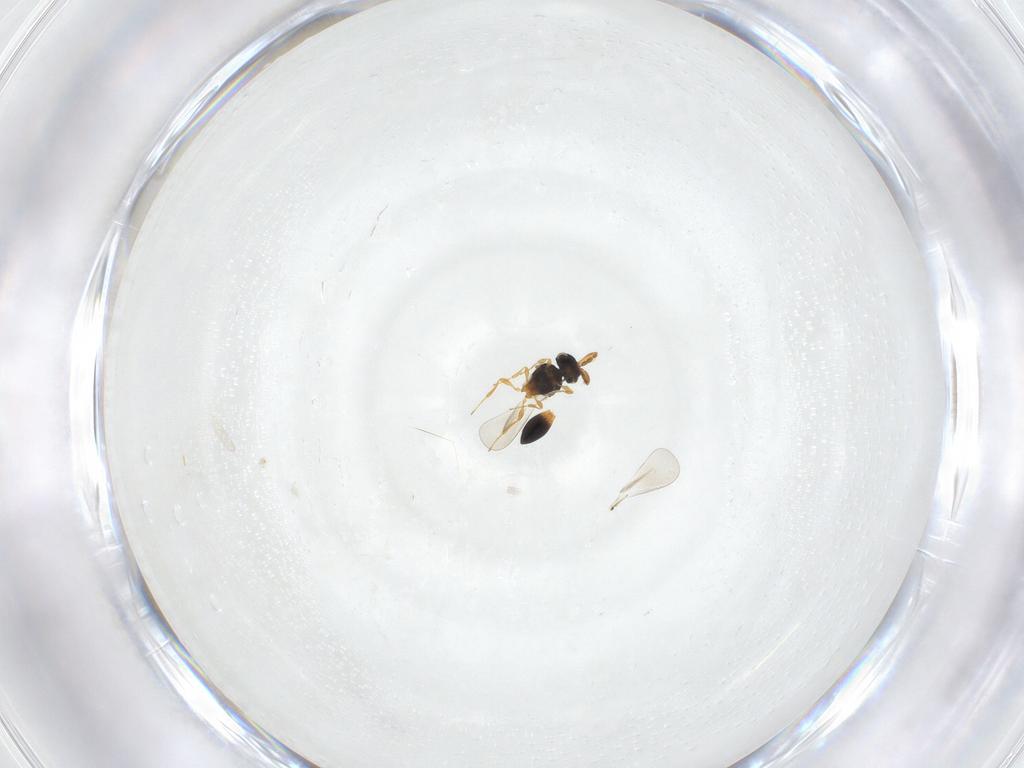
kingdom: Animalia
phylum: Arthropoda
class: Insecta
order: Hymenoptera
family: Platygastridae
